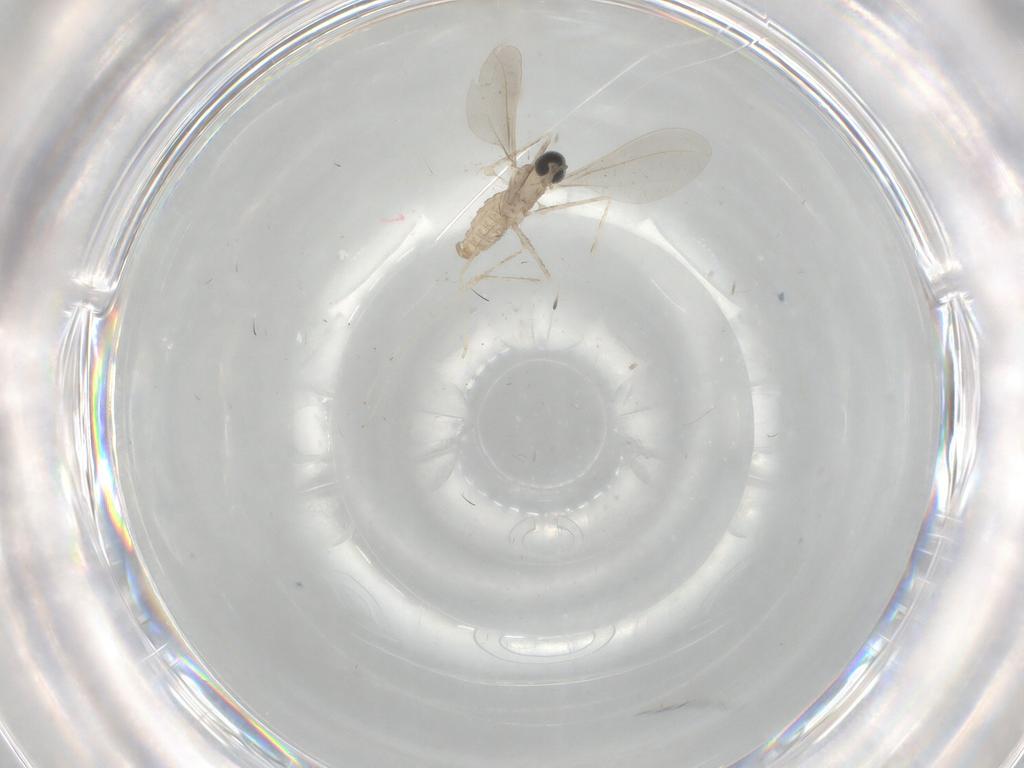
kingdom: Animalia
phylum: Arthropoda
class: Insecta
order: Diptera
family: Cecidomyiidae
